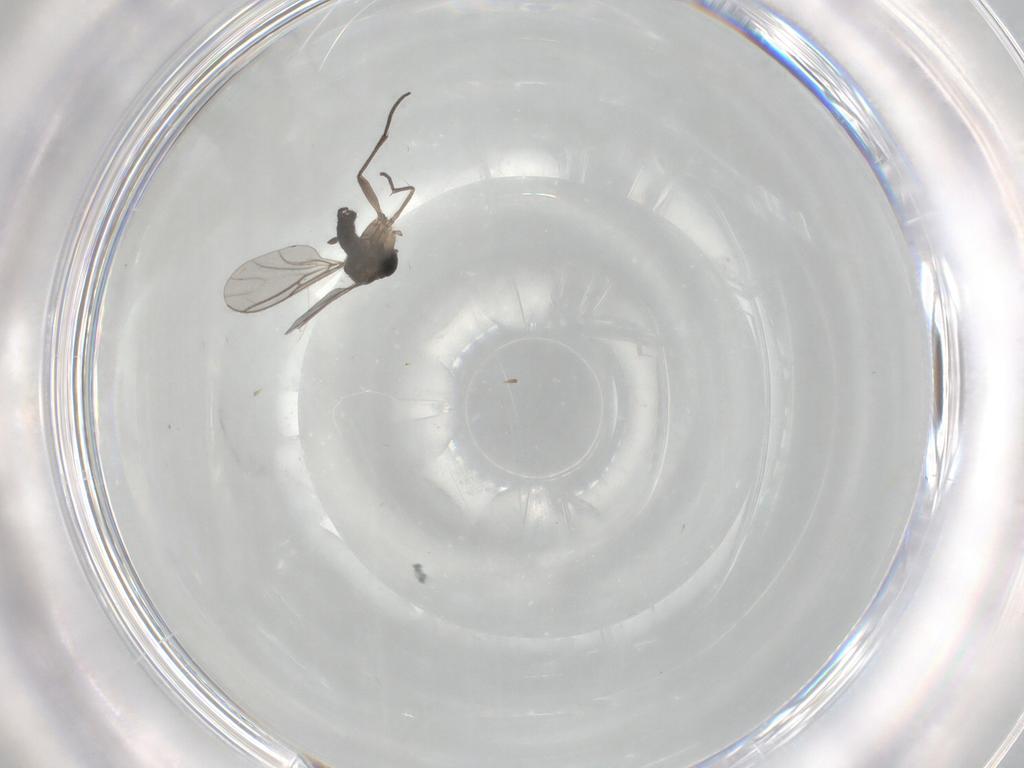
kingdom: Animalia
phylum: Arthropoda
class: Insecta
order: Diptera
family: Sciaridae
